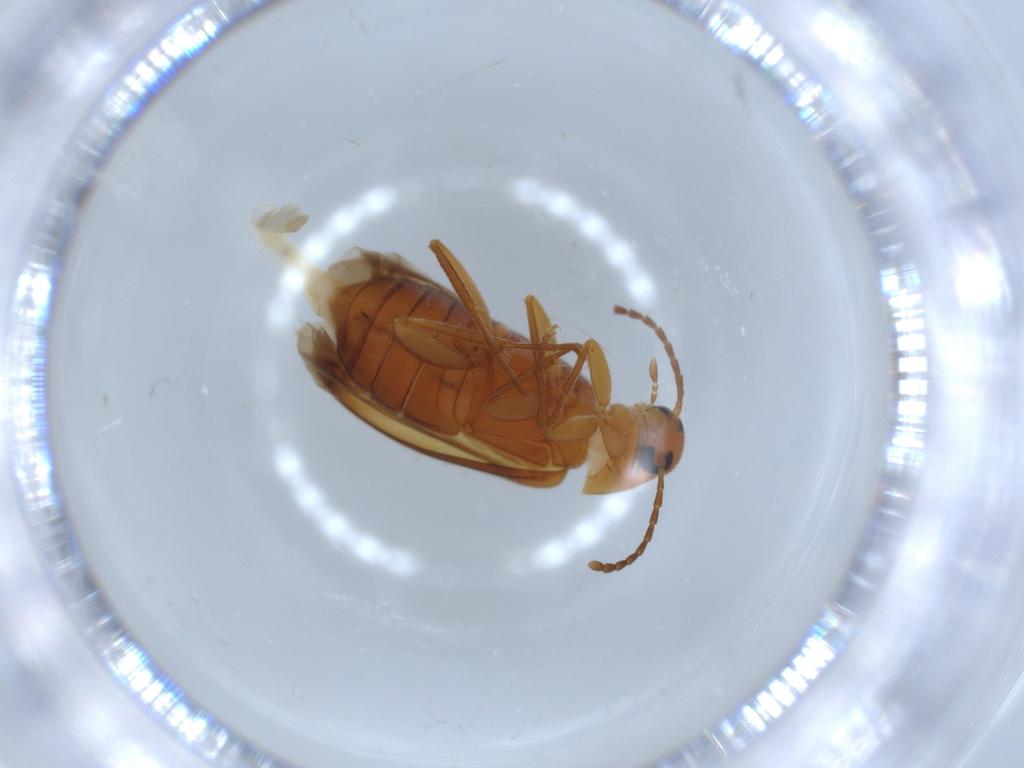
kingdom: Animalia
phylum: Arthropoda
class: Insecta
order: Coleoptera
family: Scraptiidae
